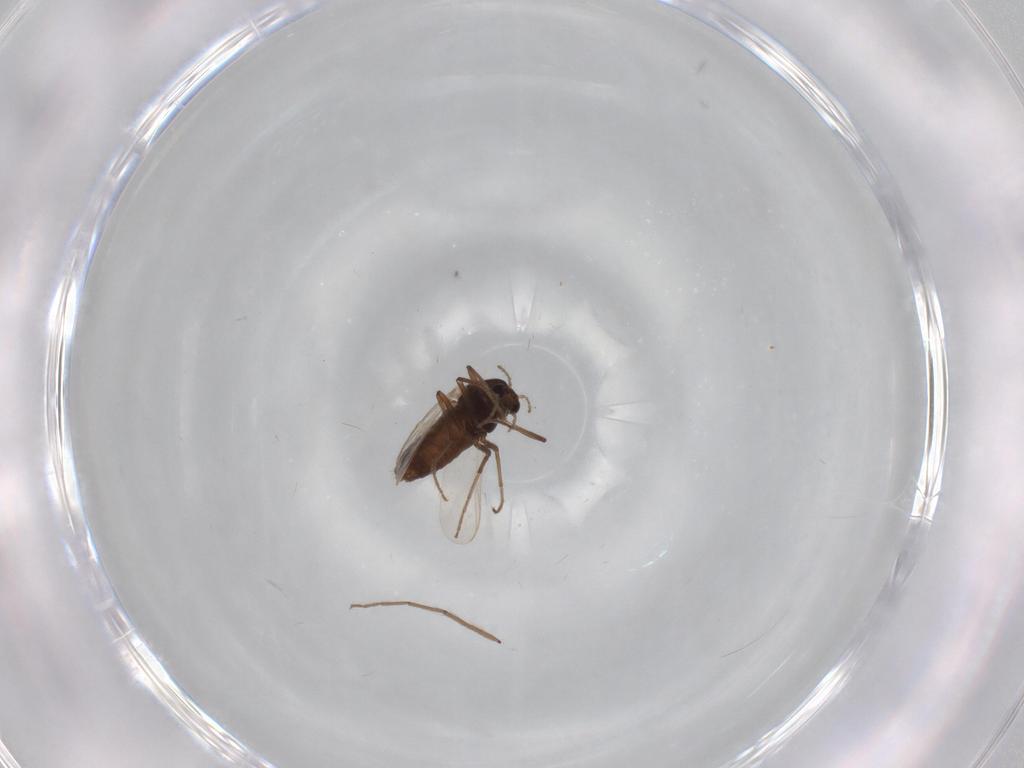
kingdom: Animalia
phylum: Arthropoda
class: Insecta
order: Diptera
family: Chironomidae
